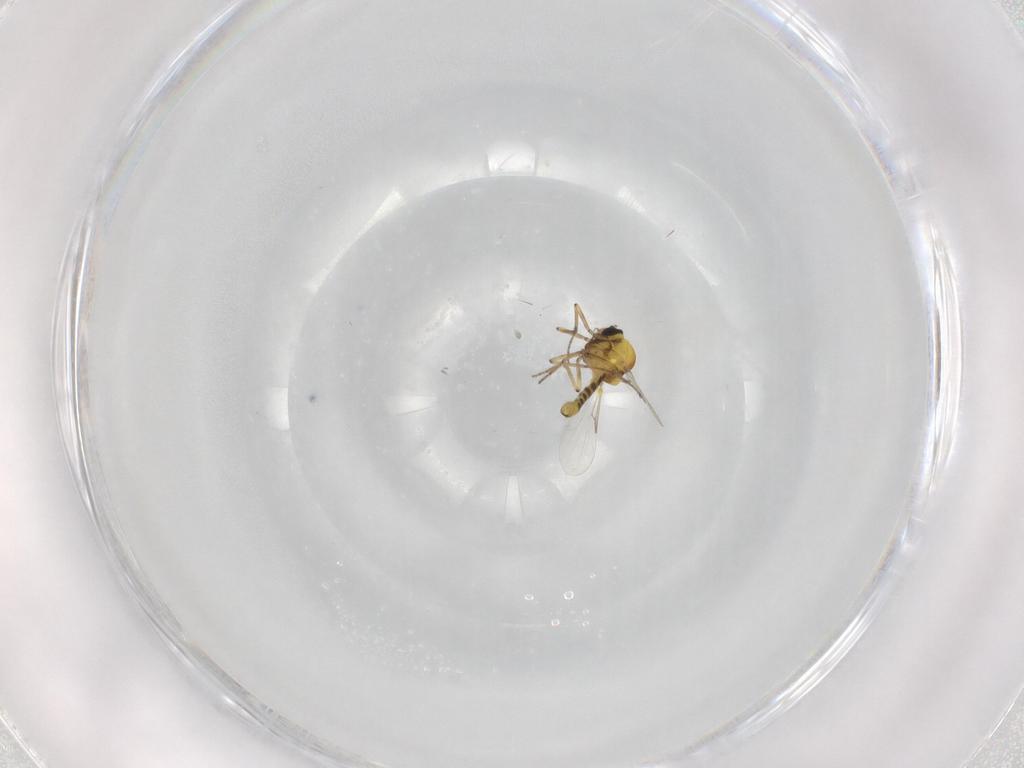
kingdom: Animalia
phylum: Arthropoda
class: Insecta
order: Diptera
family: Ceratopogonidae
